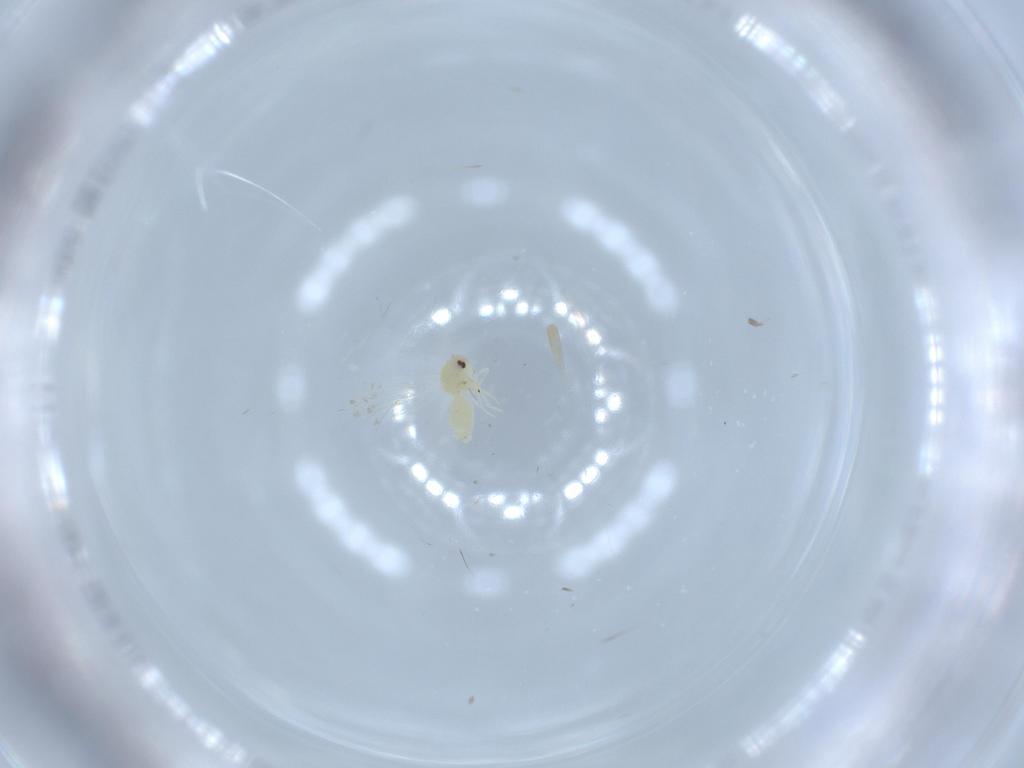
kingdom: Animalia
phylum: Arthropoda
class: Insecta
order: Hemiptera
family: Aleyrodidae
